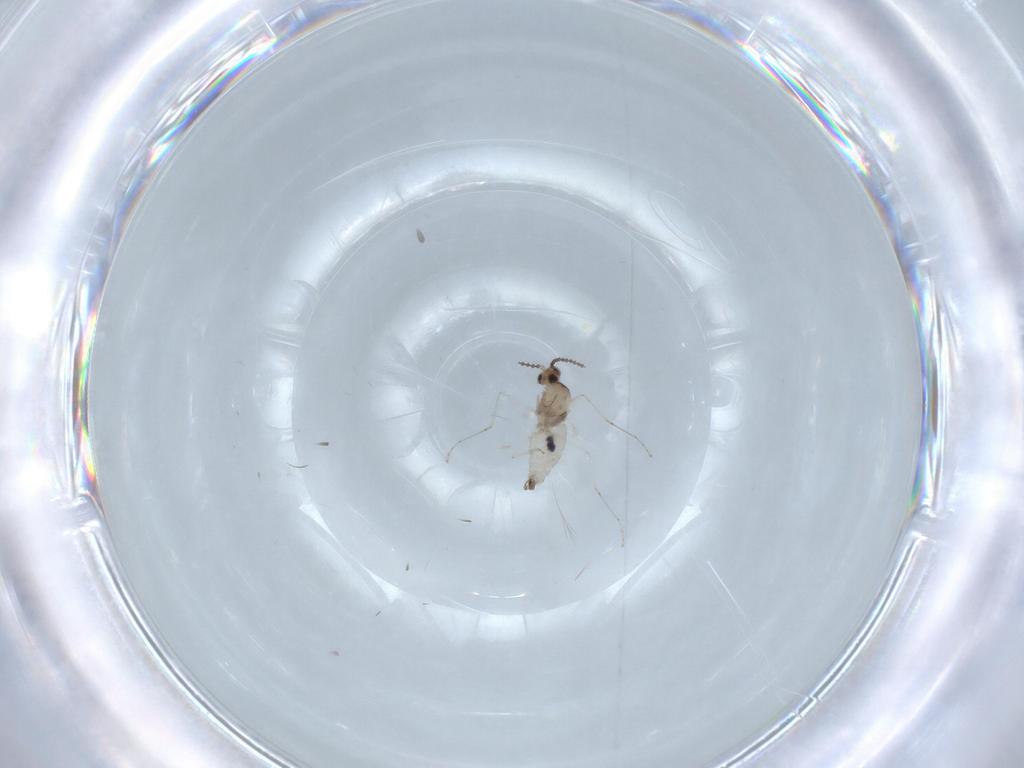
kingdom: Animalia
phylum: Arthropoda
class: Insecta
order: Diptera
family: Cecidomyiidae
